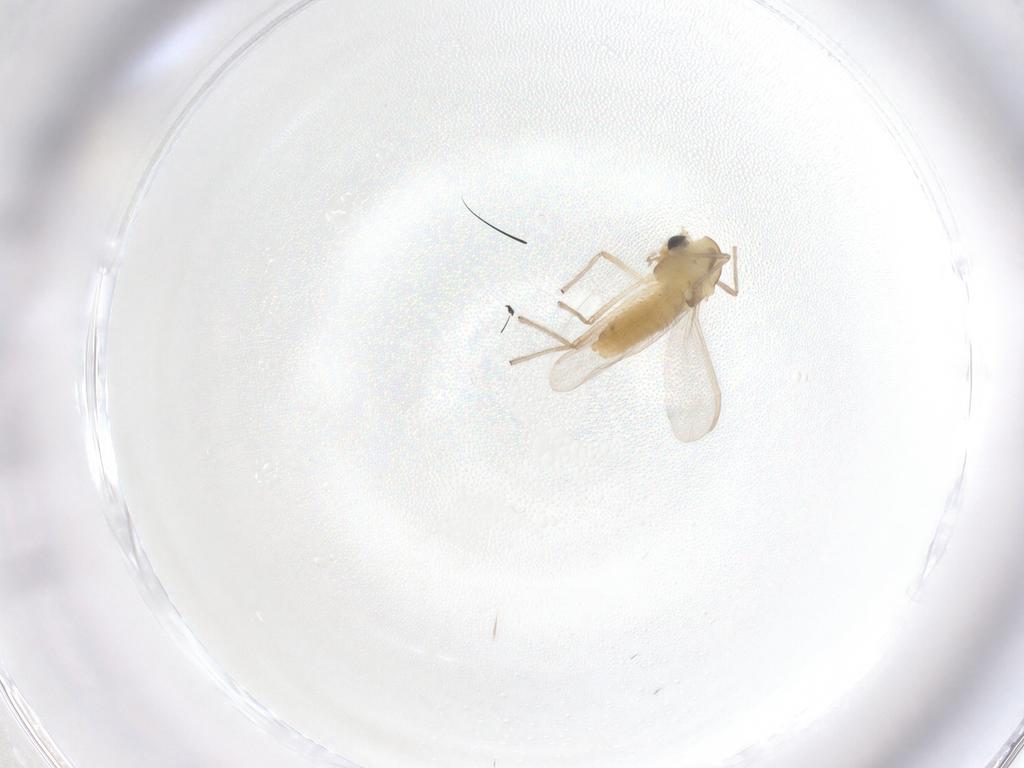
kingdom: Animalia
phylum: Arthropoda
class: Insecta
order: Diptera
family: Chironomidae
